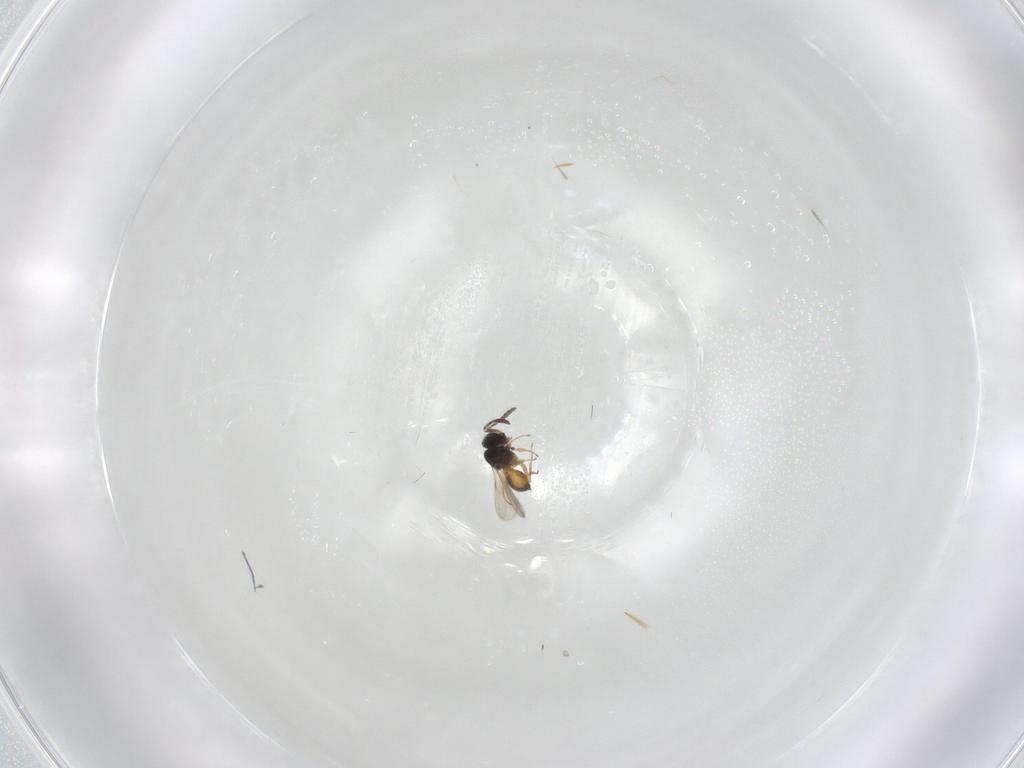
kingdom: Animalia
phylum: Arthropoda
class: Insecta
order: Hymenoptera
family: Scelionidae
